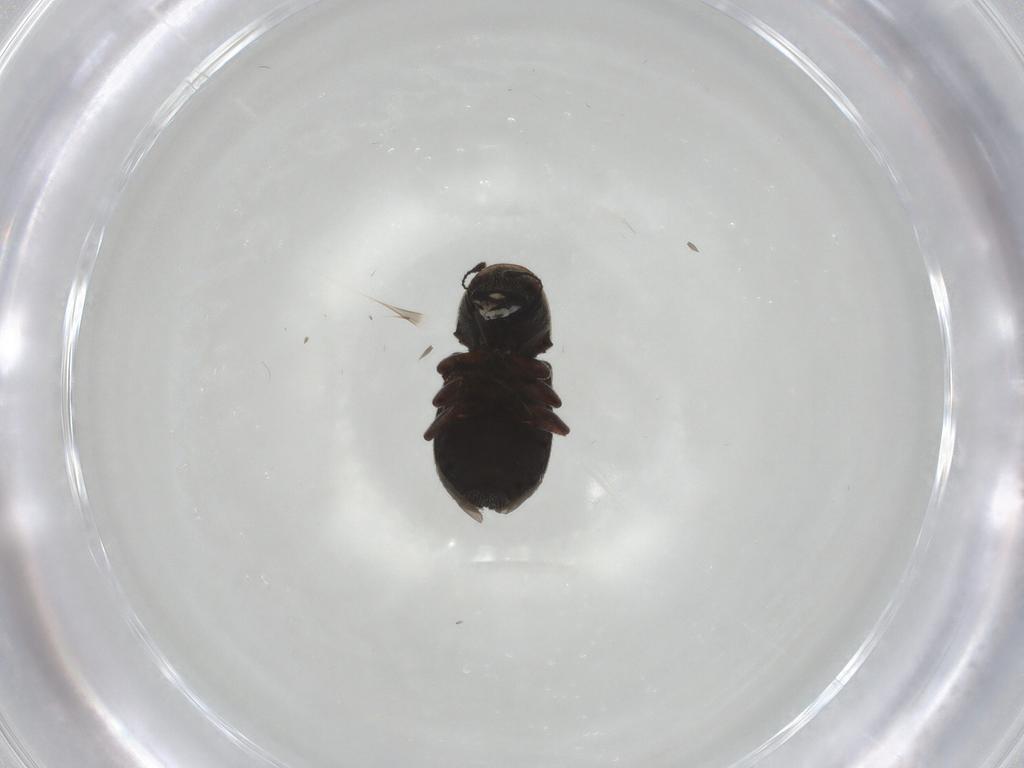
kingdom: Animalia
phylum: Arthropoda
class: Insecta
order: Coleoptera
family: Anthribidae
